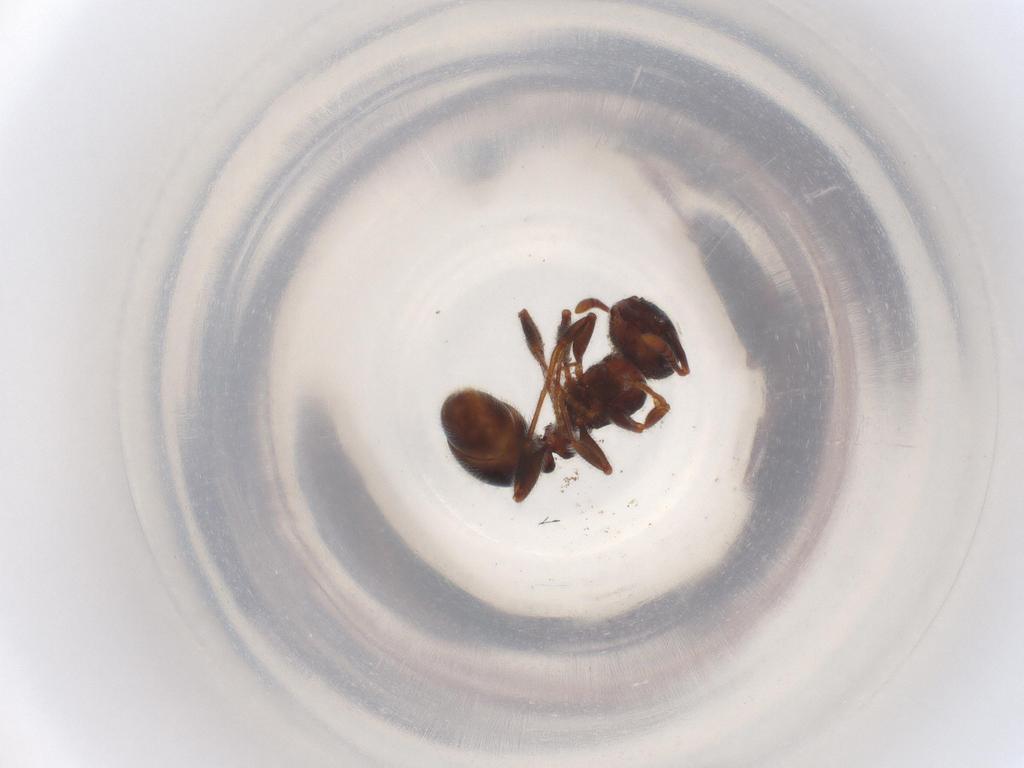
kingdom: Animalia
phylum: Arthropoda
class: Insecta
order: Hymenoptera
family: Formicidae
